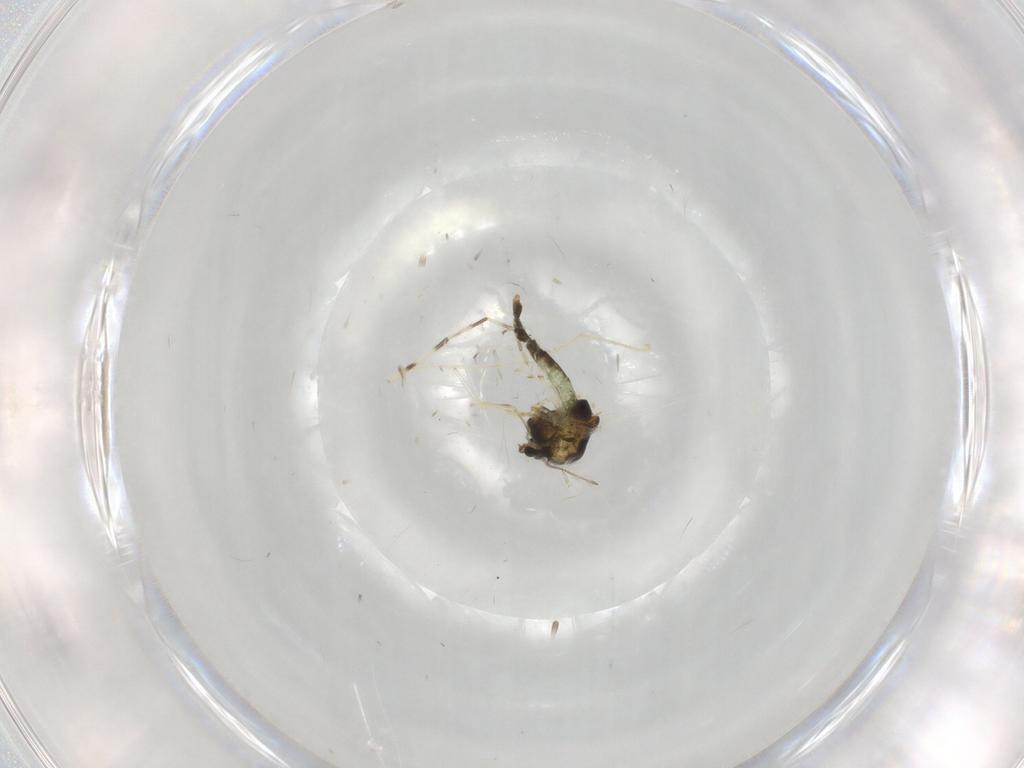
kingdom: Animalia
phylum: Arthropoda
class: Insecta
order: Diptera
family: Chironomidae
